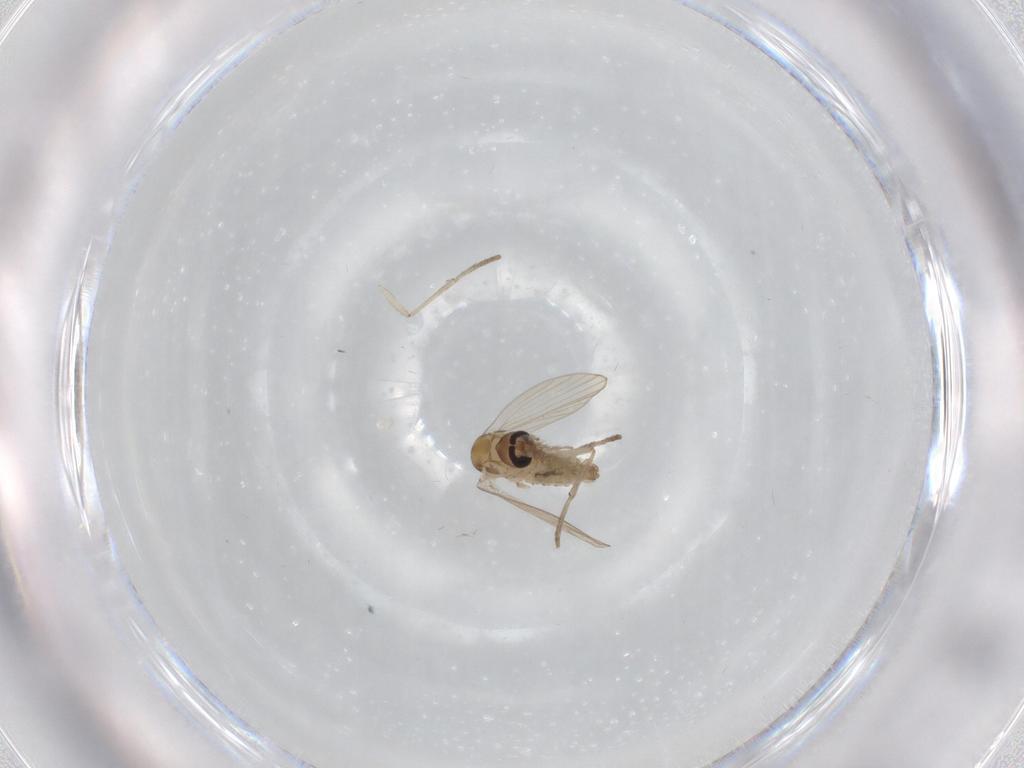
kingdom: Animalia
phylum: Arthropoda
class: Insecta
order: Diptera
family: Psychodidae
